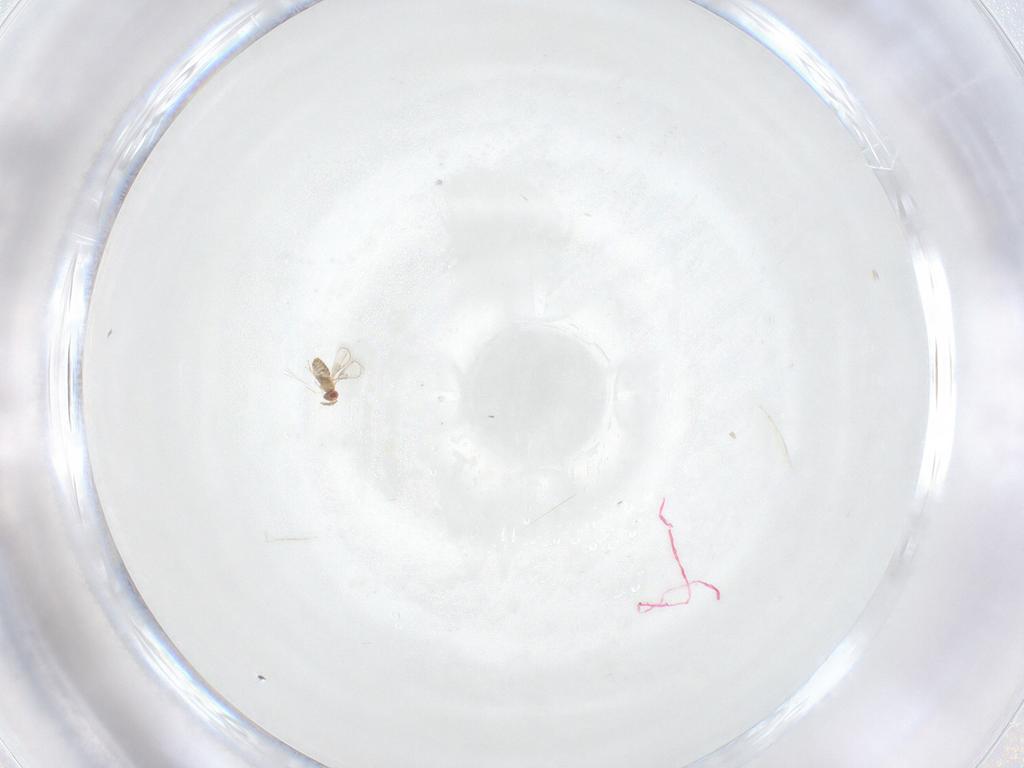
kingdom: Animalia
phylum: Arthropoda
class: Insecta
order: Hymenoptera
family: Trichogrammatidae
